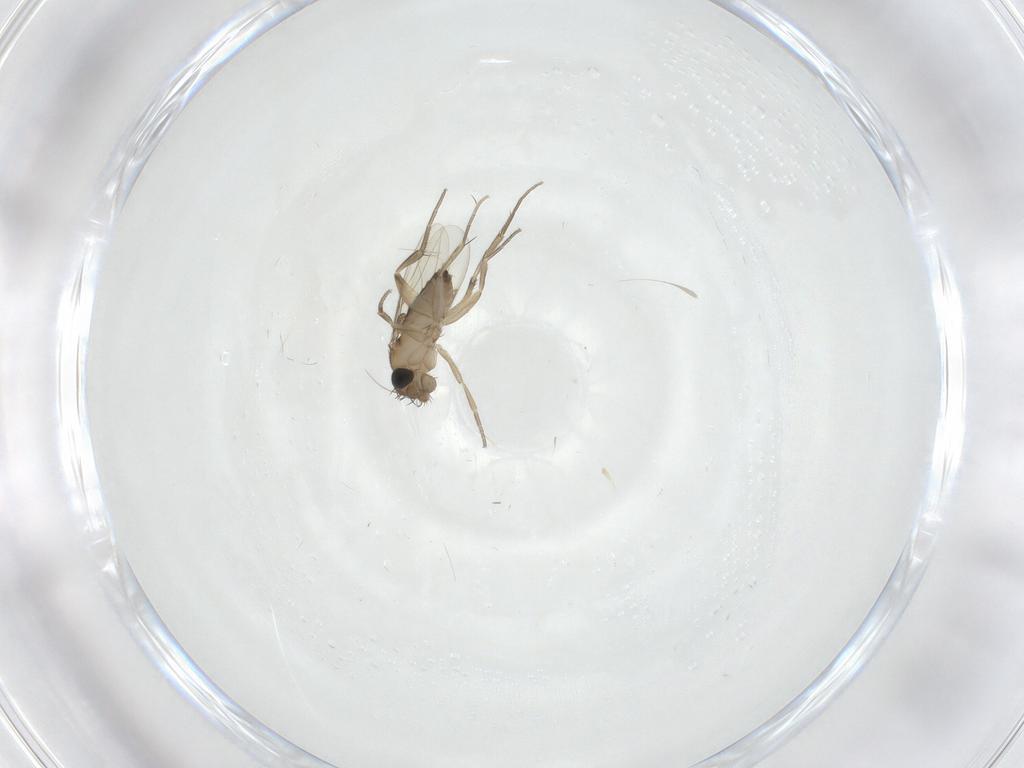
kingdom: Animalia
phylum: Arthropoda
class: Insecta
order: Diptera
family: Phoridae
